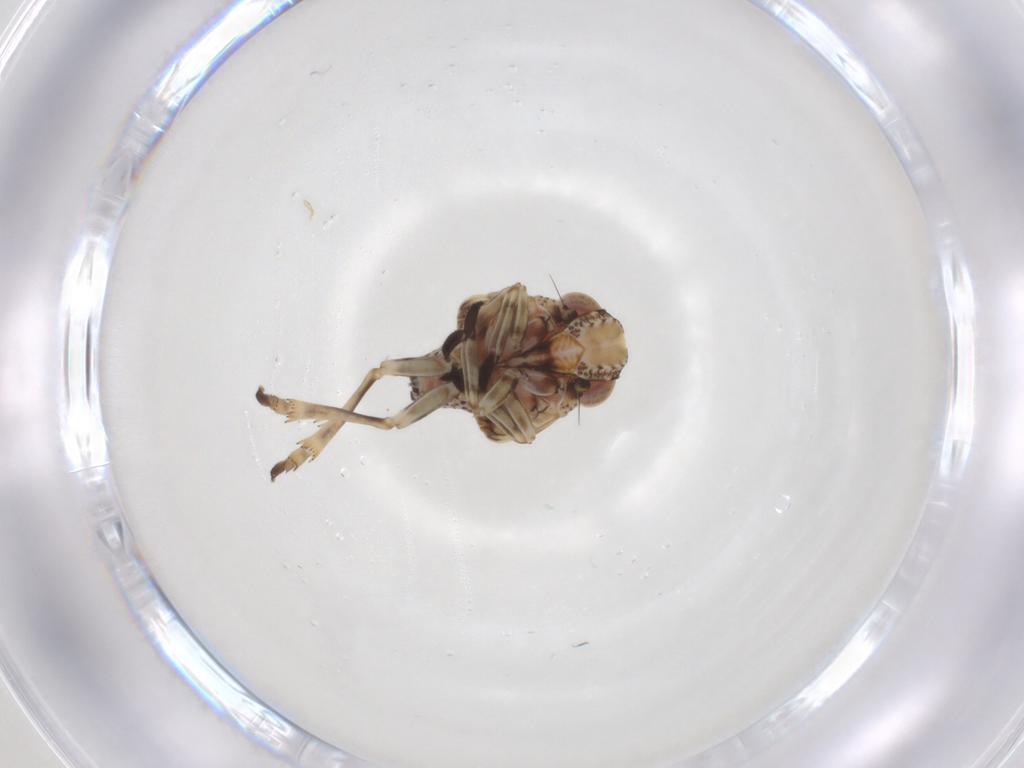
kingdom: Animalia
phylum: Arthropoda
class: Insecta
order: Hemiptera
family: Tropiduchidae
